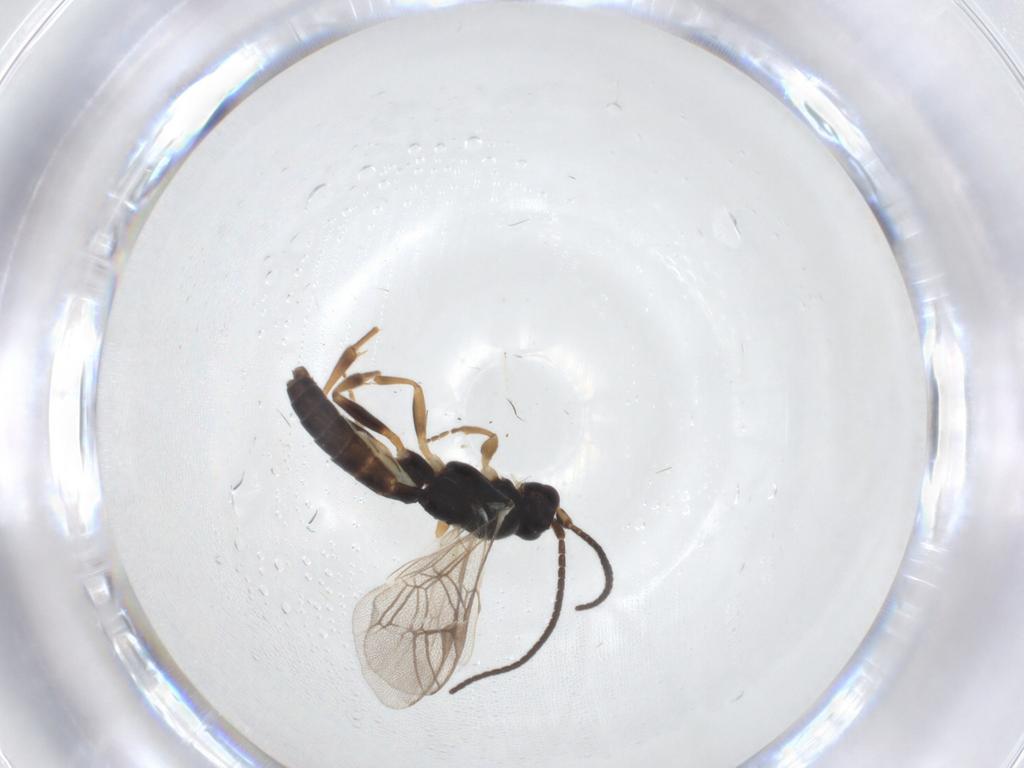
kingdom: Animalia
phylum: Arthropoda
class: Insecta
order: Hymenoptera
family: Ichneumonidae
